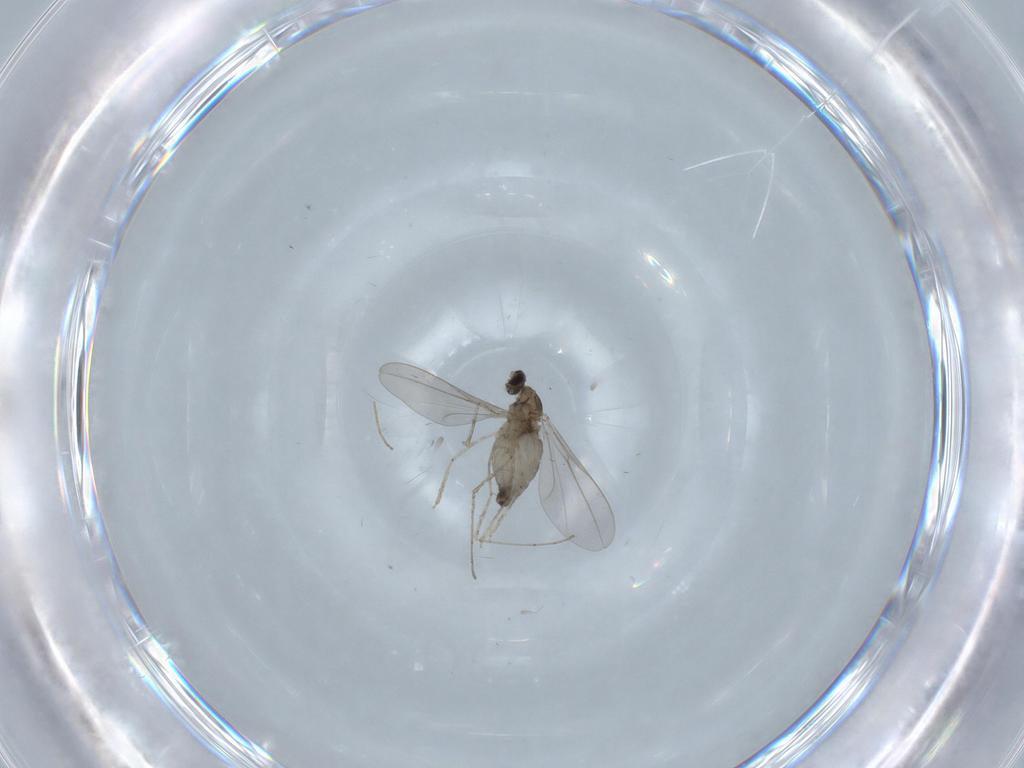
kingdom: Animalia
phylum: Arthropoda
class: Insecta
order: Diptera
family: Cecidomyiidae
